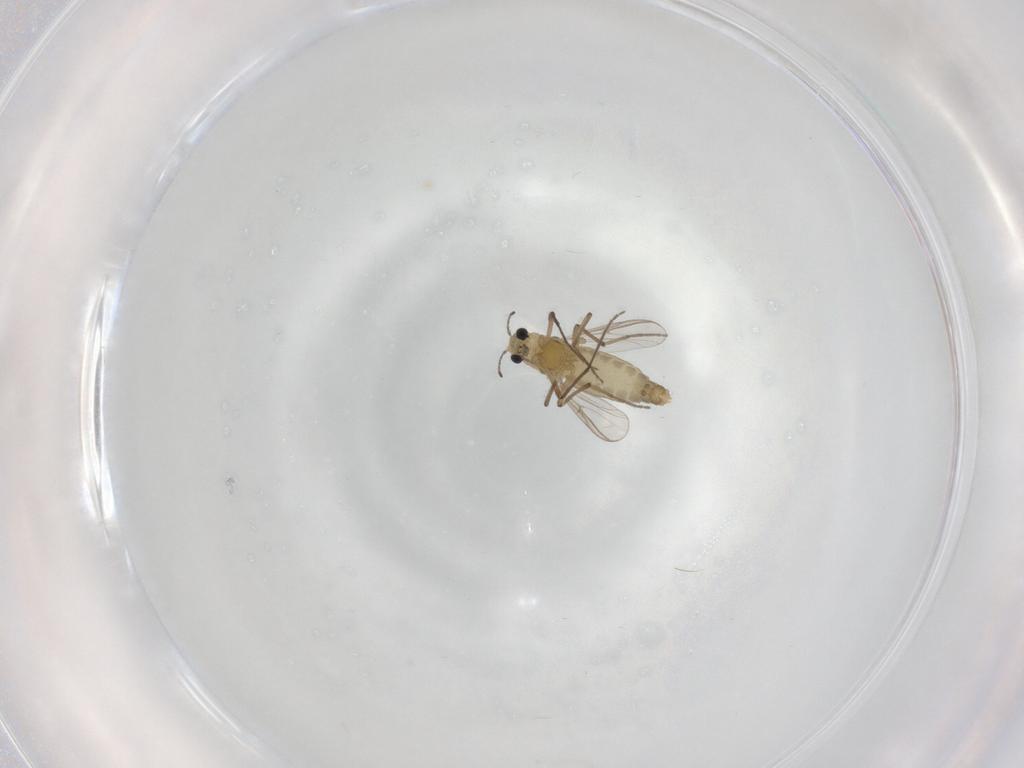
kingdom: Animalia
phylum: Arthropoda
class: Insecta
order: Diptera
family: Chironomidae
